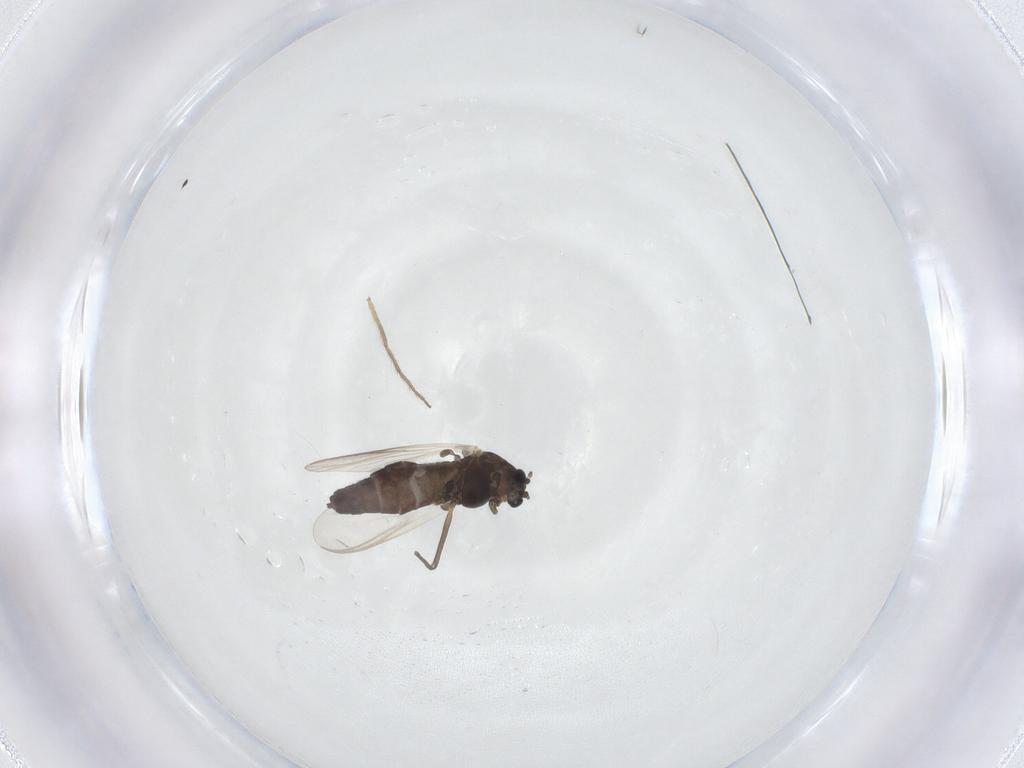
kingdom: Animalia
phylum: Arthropoda
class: Insecta
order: Diptera
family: Chironomidae
